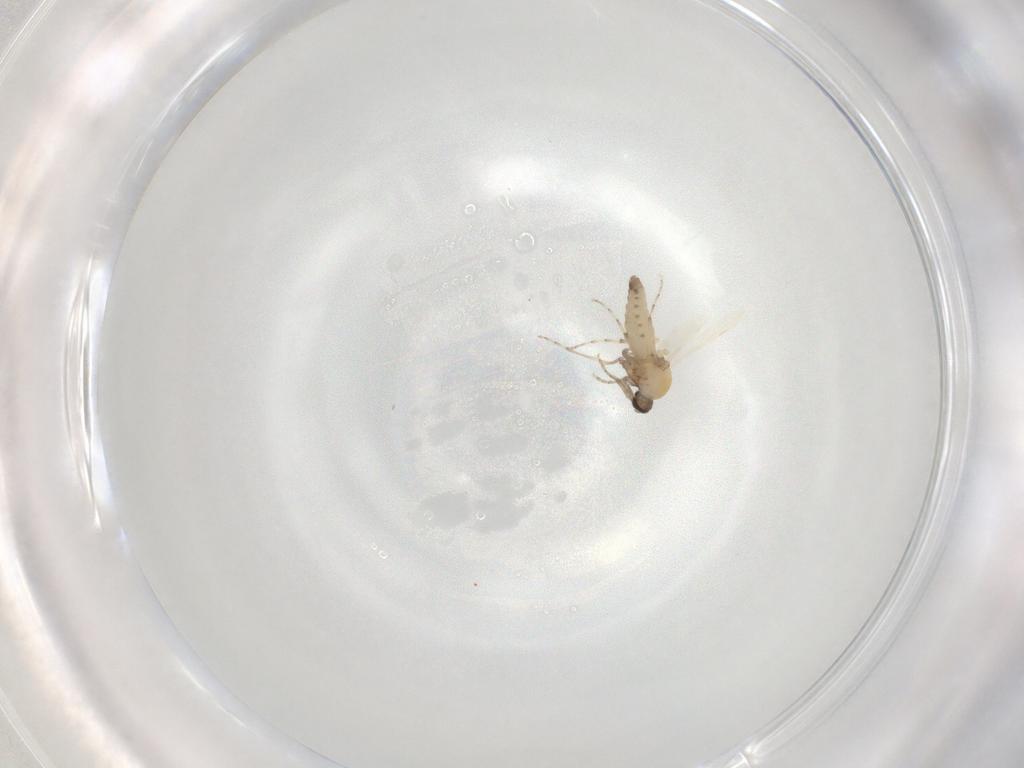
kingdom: Animalia
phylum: Arthropoda
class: Insecta
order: Diptera
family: Ceratopogonidae
